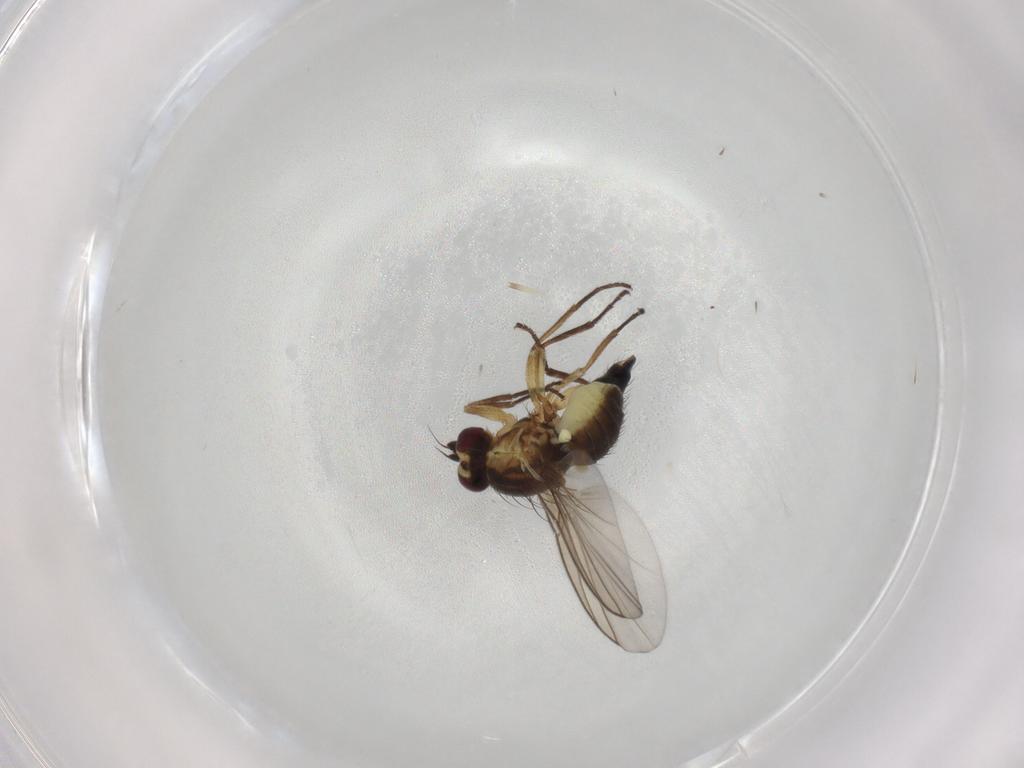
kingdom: Animalia
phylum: Arthropoda
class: Insecta
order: Diptera
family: Agromyzidae
